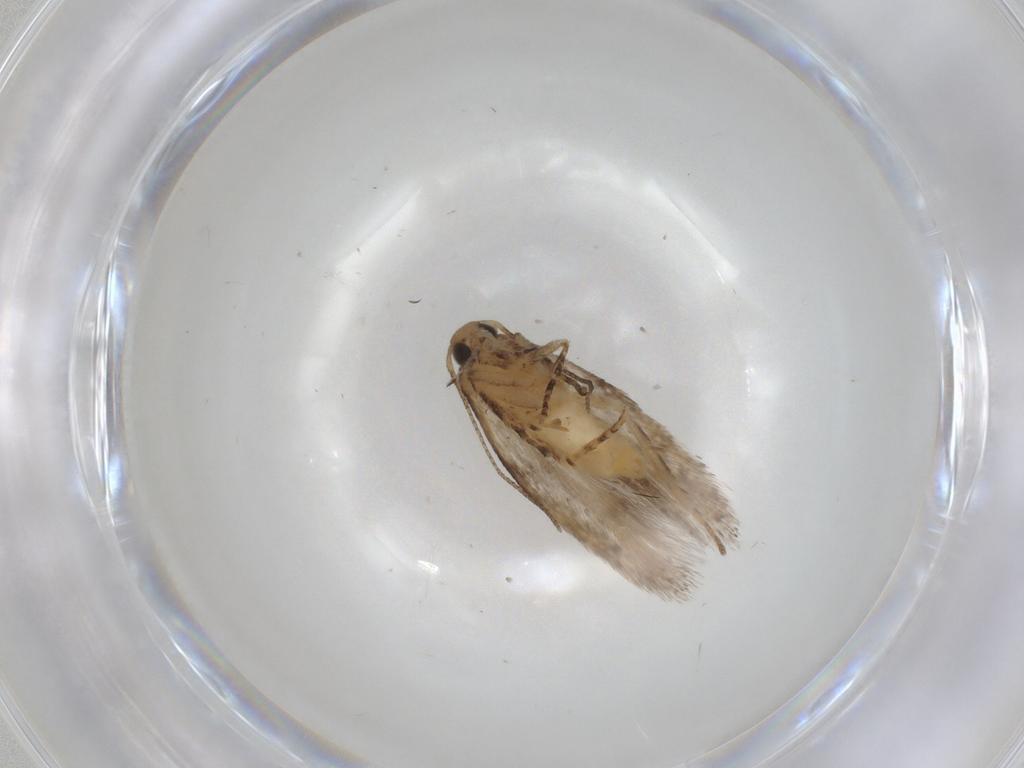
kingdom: Animalia
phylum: Arthropoda
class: Insecta
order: Lepidoptera
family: Gelechiidae
